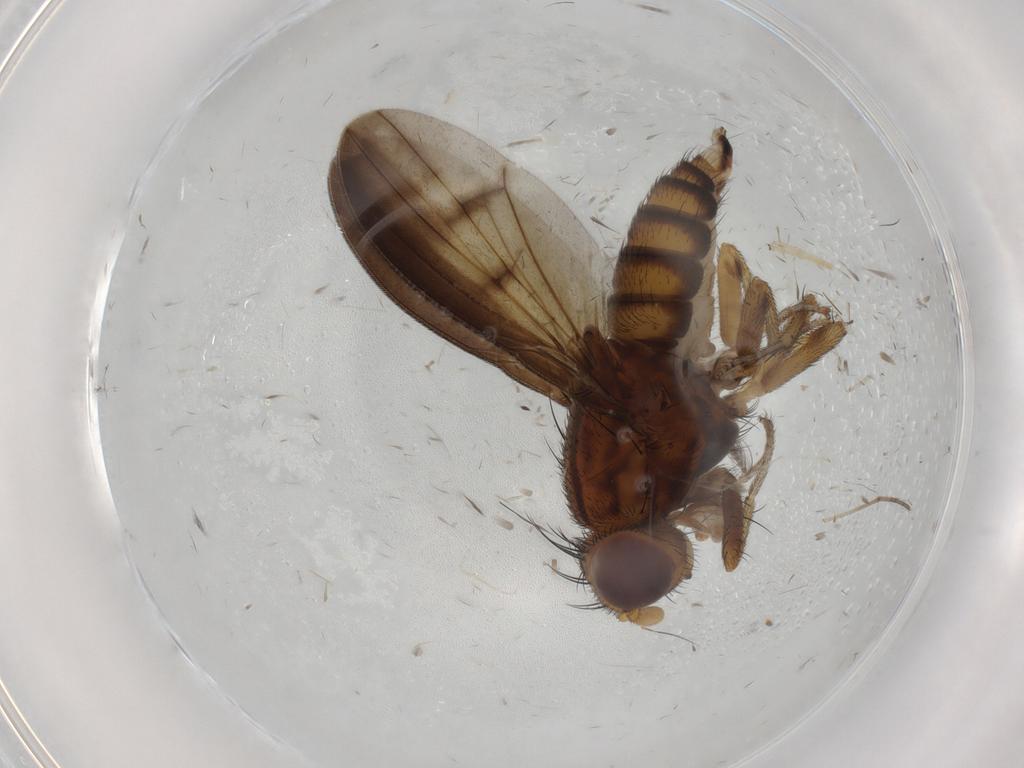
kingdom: Animalia
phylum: Arthropoda
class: Insecta
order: Diptera
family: Lauxaniidae
